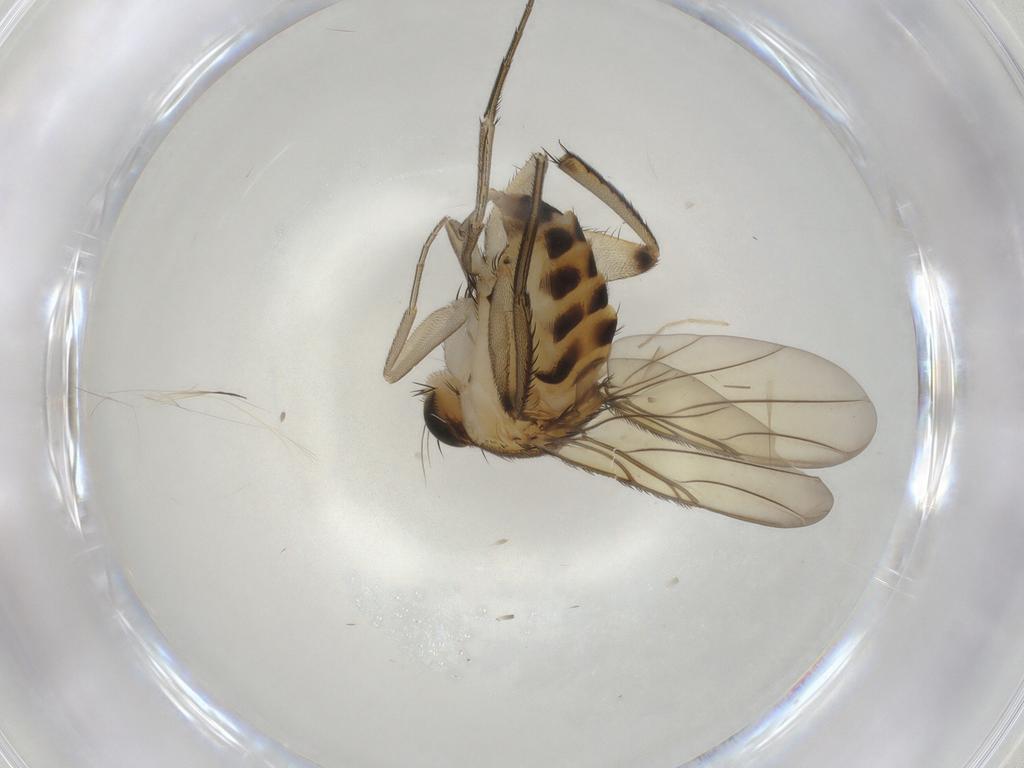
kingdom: Animalia
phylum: Arthropoda
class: Insecta
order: Diptera
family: Phoridae
